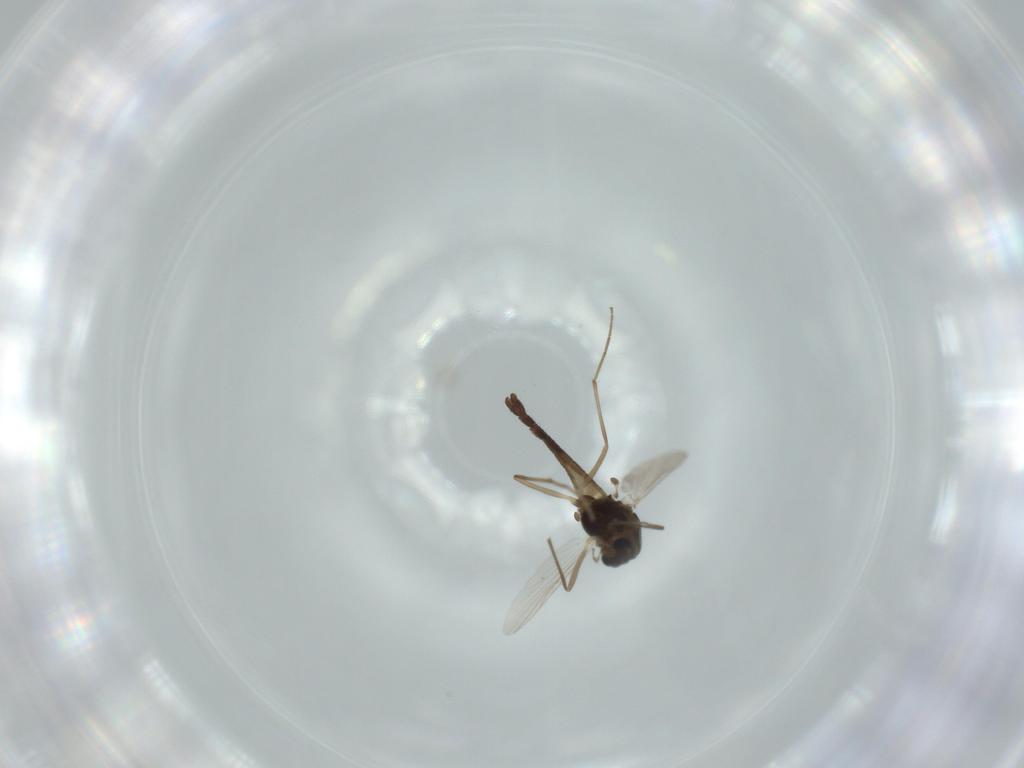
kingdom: Animalia
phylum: Arthropoda
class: Insecta
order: Diptera
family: Chironomidae
